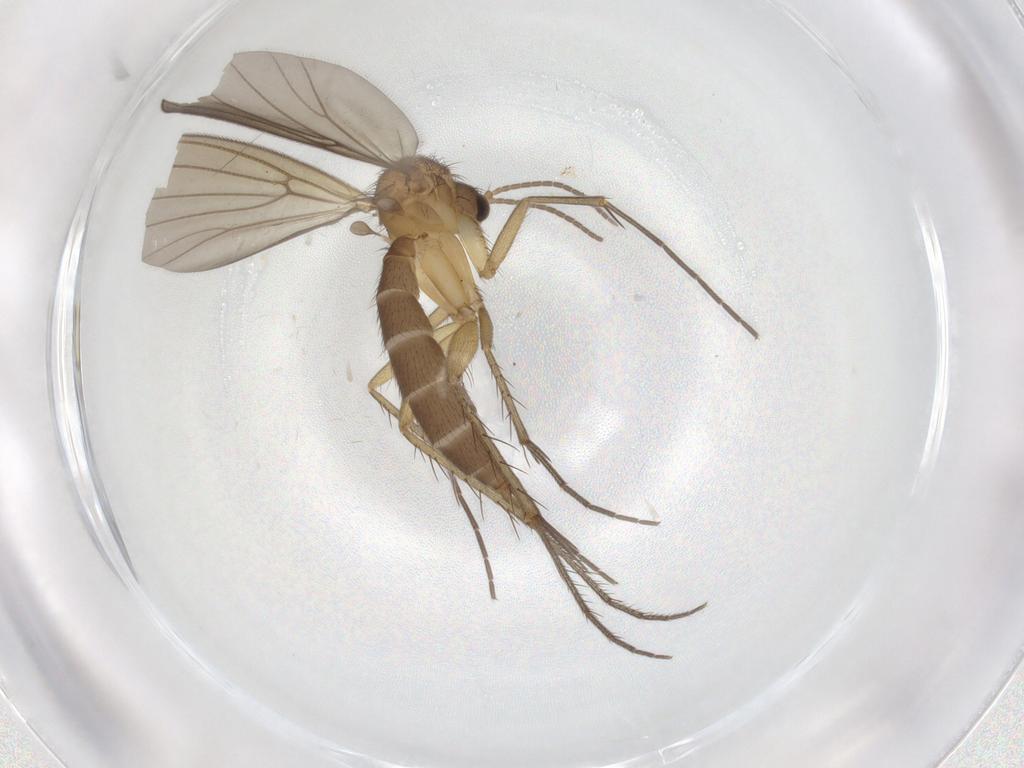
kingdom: Animalia
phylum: Arthropoda
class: Insecta
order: Diptera
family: Mycetophilidae
